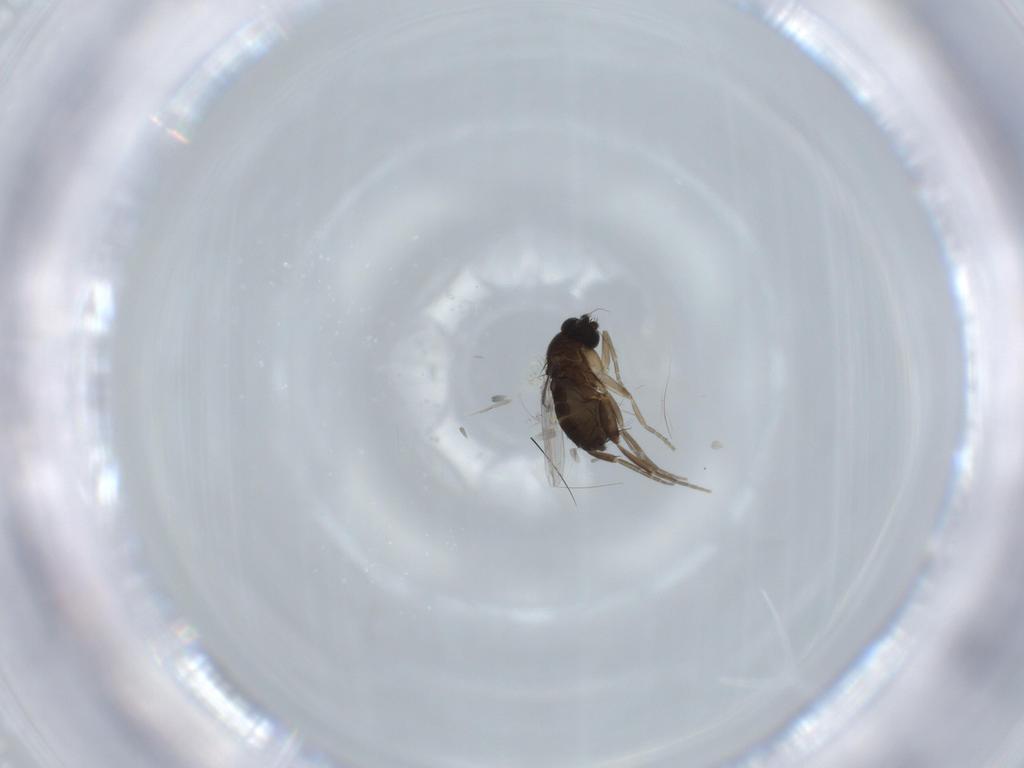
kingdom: Animalia
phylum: Arthropoda
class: Insecta
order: Diptera
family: Phoridae
